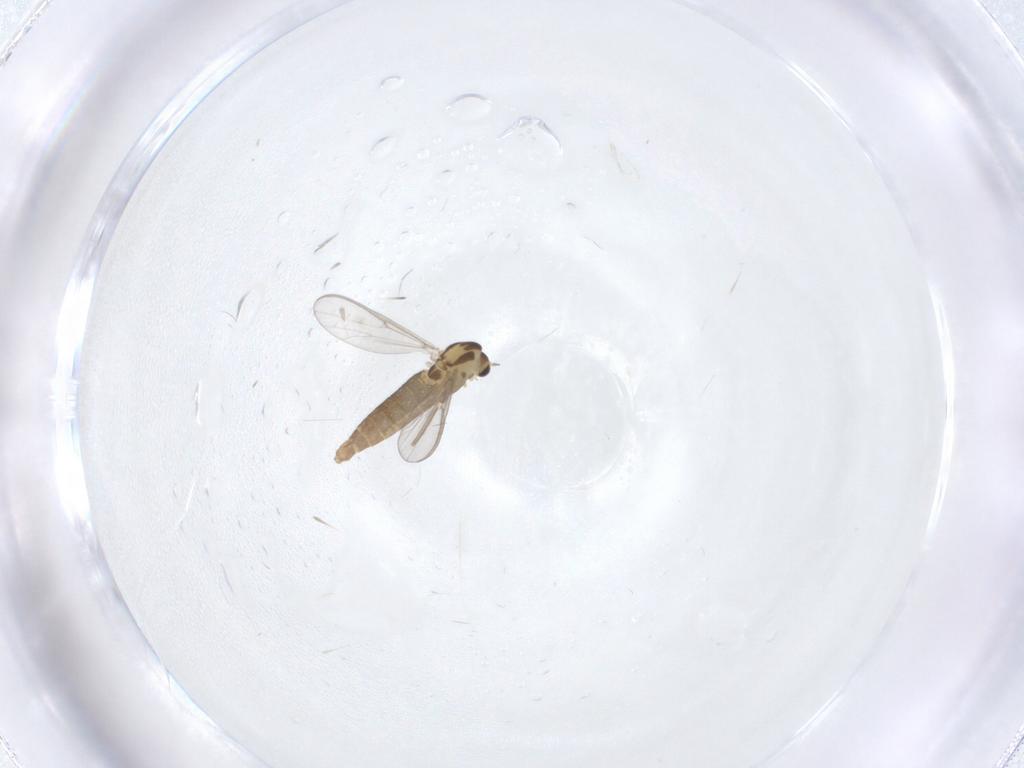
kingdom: Animalia
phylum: Arthropoda
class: Insecta
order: Diptera
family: Chironomidae
